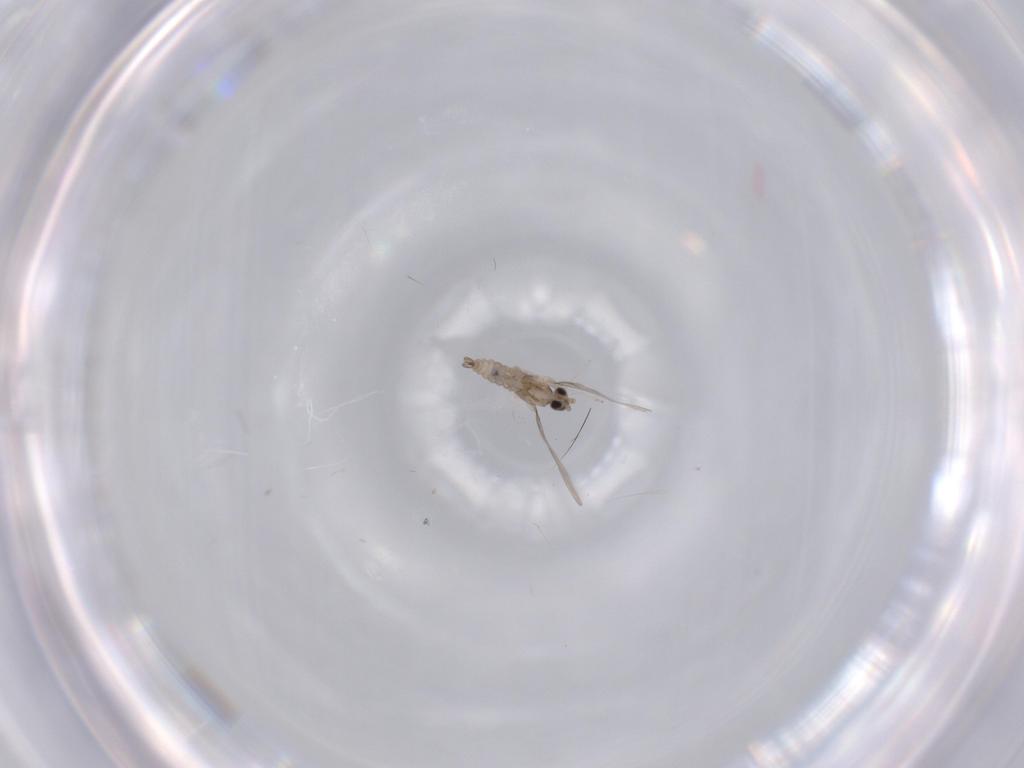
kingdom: Animalia
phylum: Arthropoda
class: Insecta
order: Diptera
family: Cecidomyiidae
